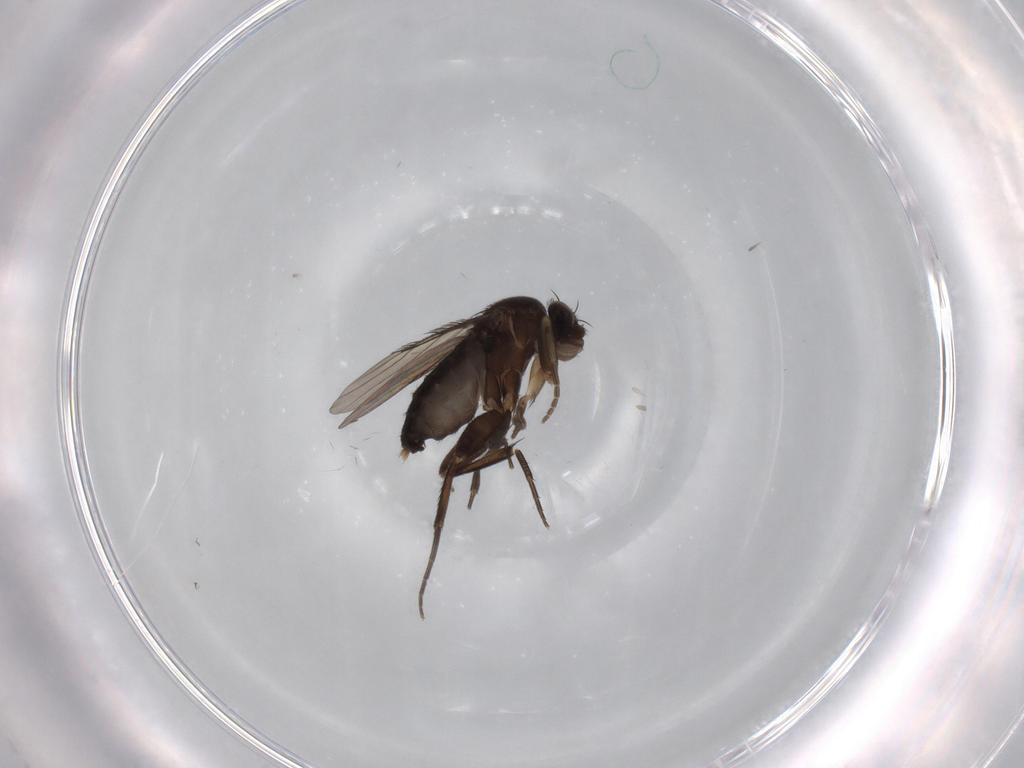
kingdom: Animalia
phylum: Arthropoda
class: Insecta
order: Diptera
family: Phoridae
